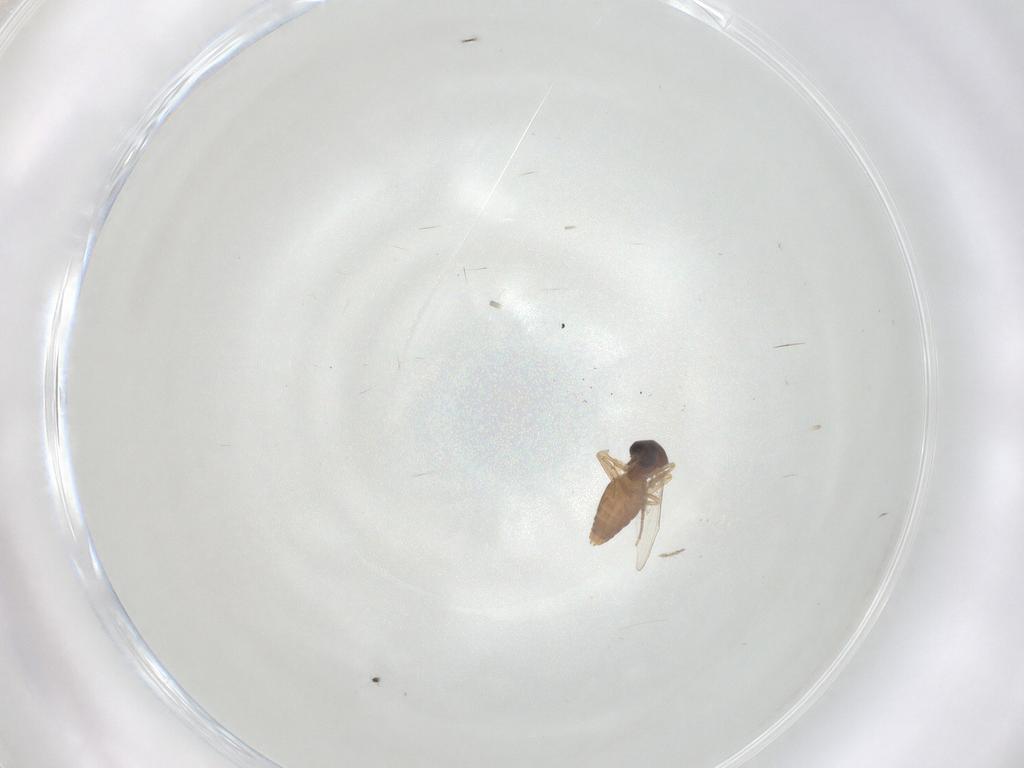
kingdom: Animalia
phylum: Arthropoda
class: Insecta
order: Diptera
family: Ceratopogonidae
